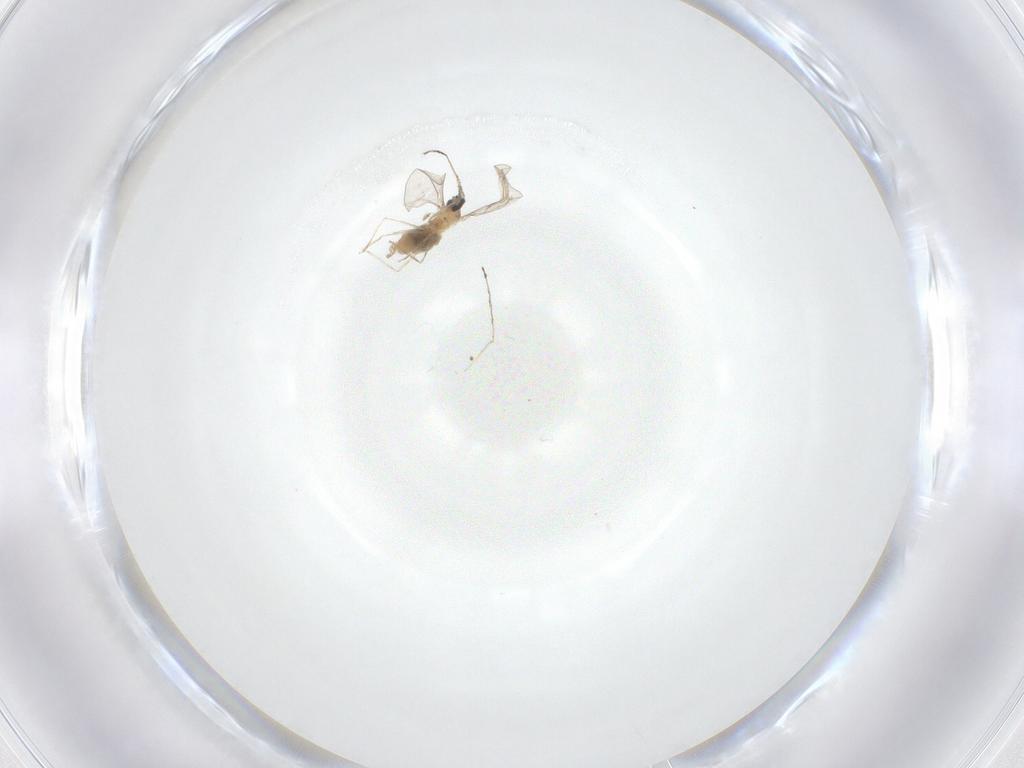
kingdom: Animalia
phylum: Arthropoda
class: Insecta
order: Diptera
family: Cecidomyiidae
